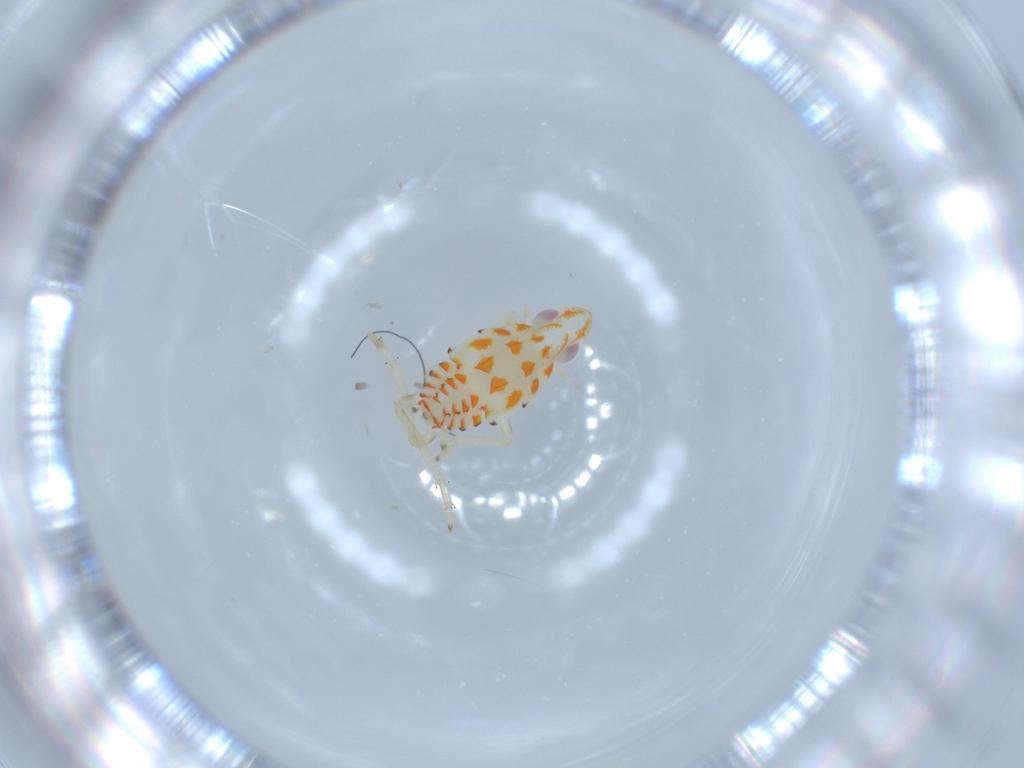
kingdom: Animalia
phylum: Arthropoda
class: Insecta
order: Hemiptera
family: Tropiduchidae
